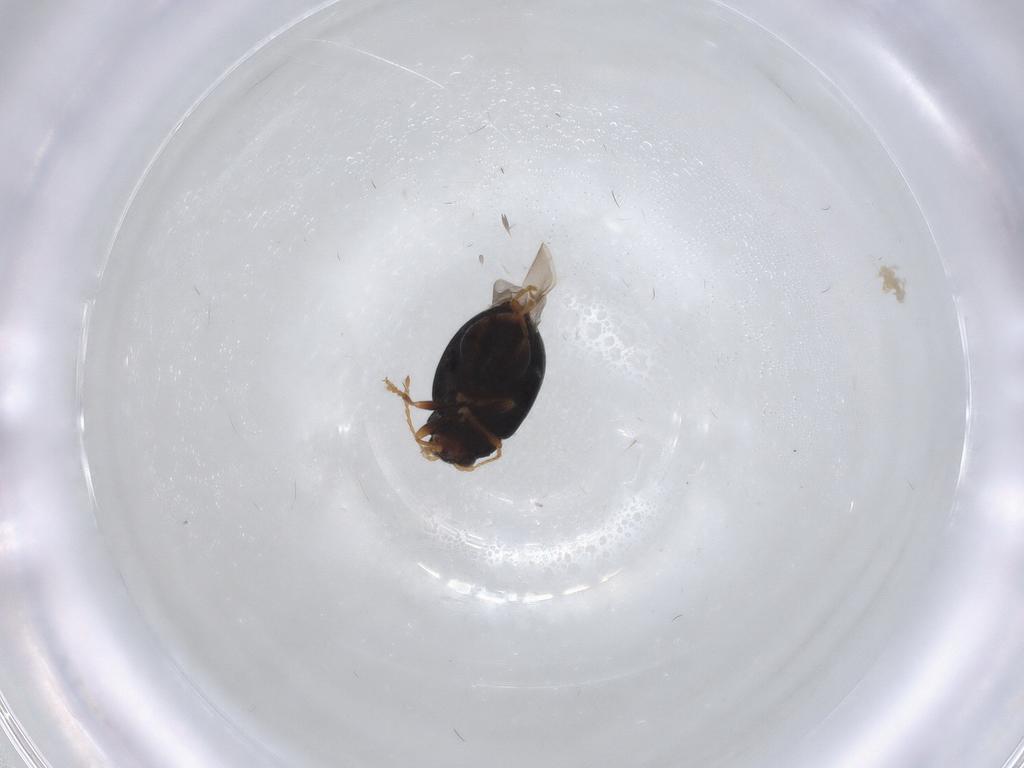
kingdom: Animalia
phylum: Arthropoda
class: Insecta
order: Coleoptera
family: Chrysomelidae
